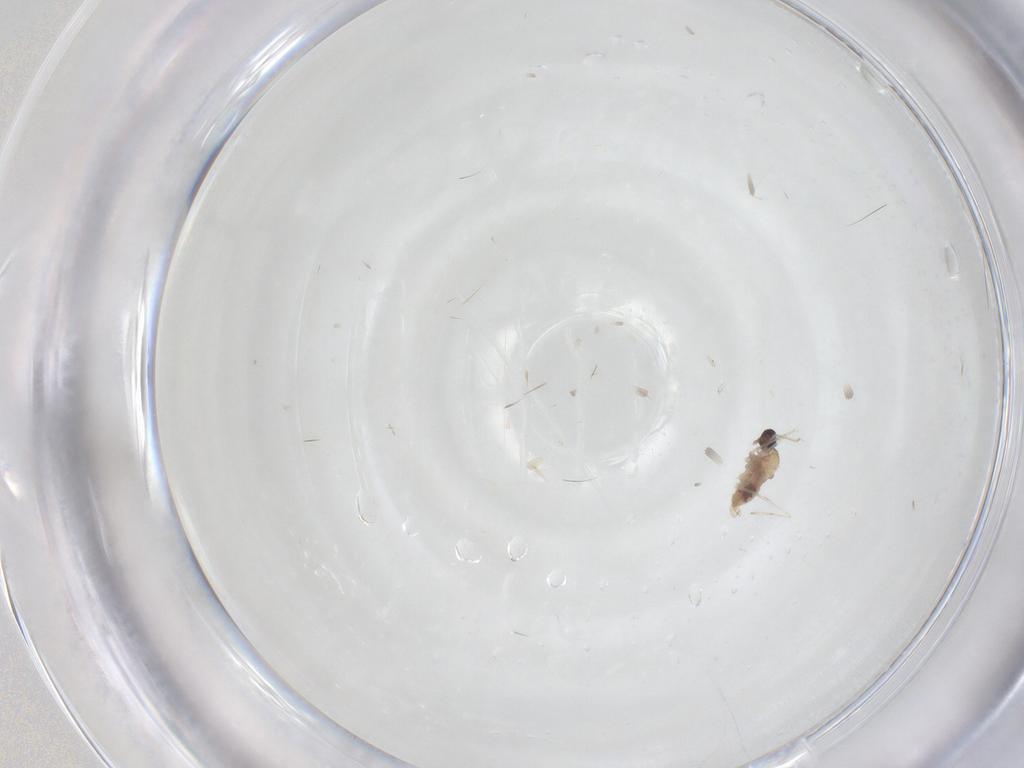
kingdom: Animalia
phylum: Arthropoda
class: Insecta
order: Diptera
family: Cecidomyiidae
